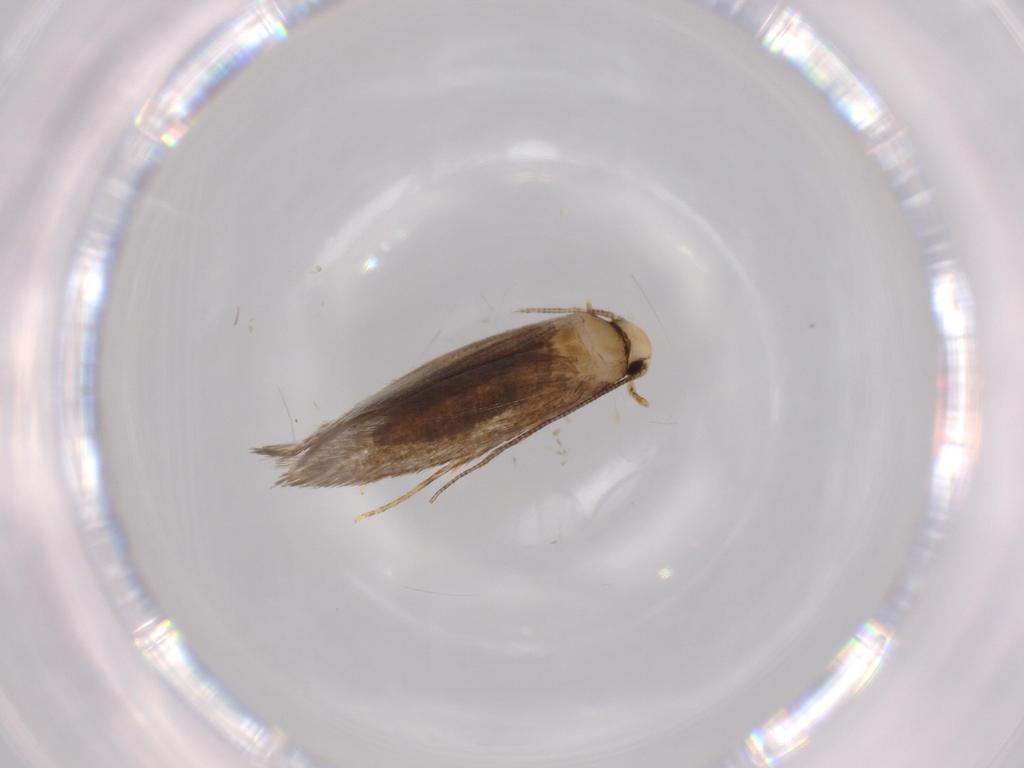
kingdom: Animalia
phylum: Arthropoda
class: Insecta
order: Lepidoptera
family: Tineidae
